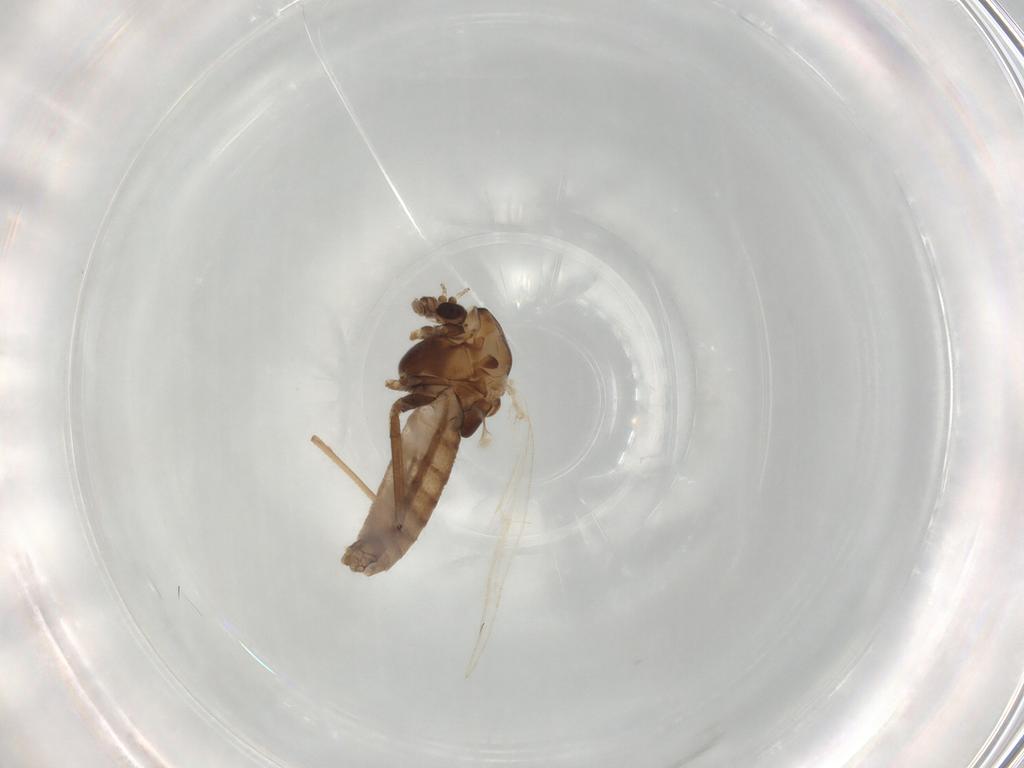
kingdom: Animalia
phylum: Arthropoda
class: Insecta
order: Diptera
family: Chironomidae
